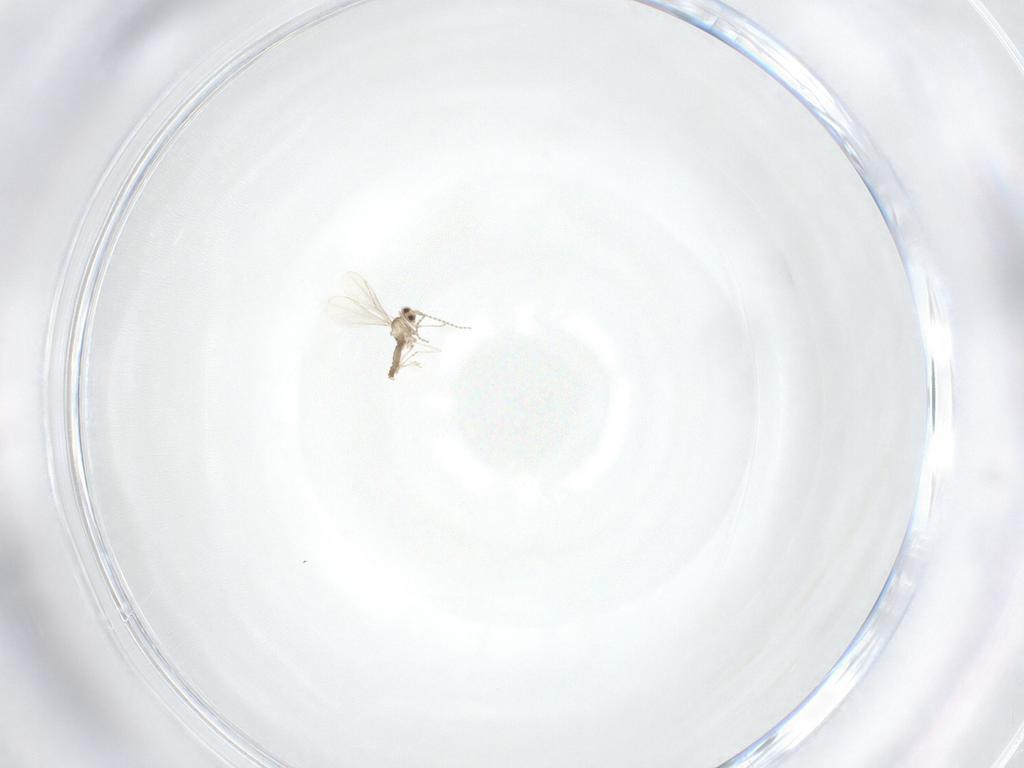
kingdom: Animalia
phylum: Arthropoda
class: Insecta
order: Diptera
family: Cecidomyiidae
